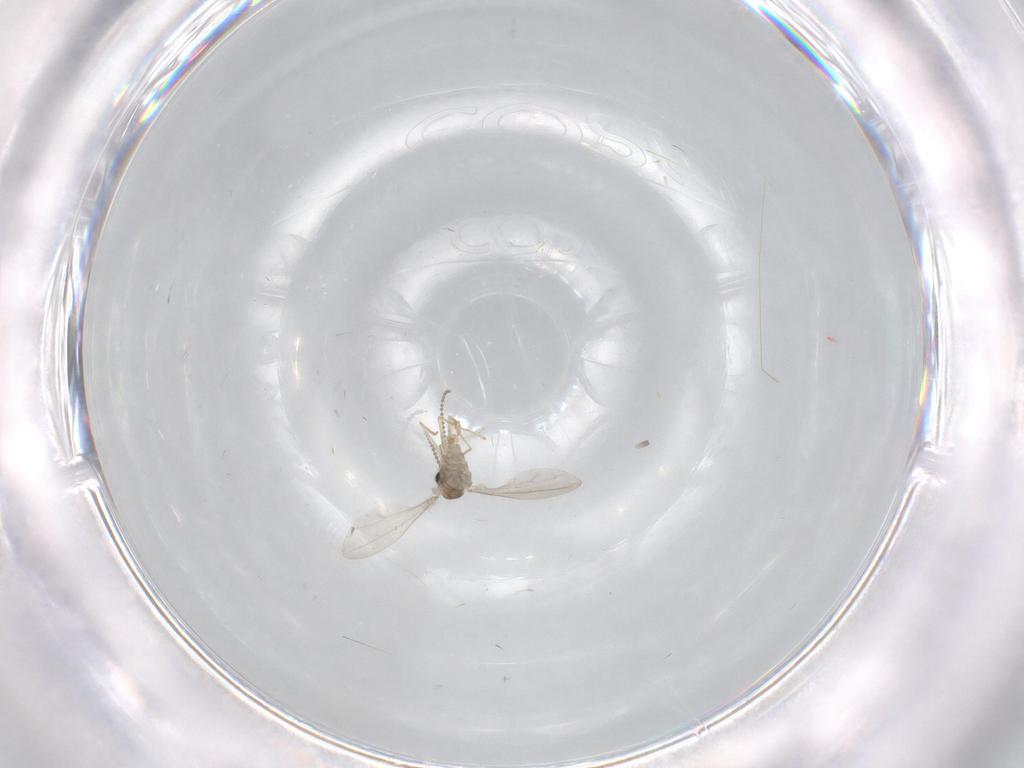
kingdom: Animalia
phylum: Arthropoda
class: Insecta
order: Diptera
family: Cecidomyiidae
